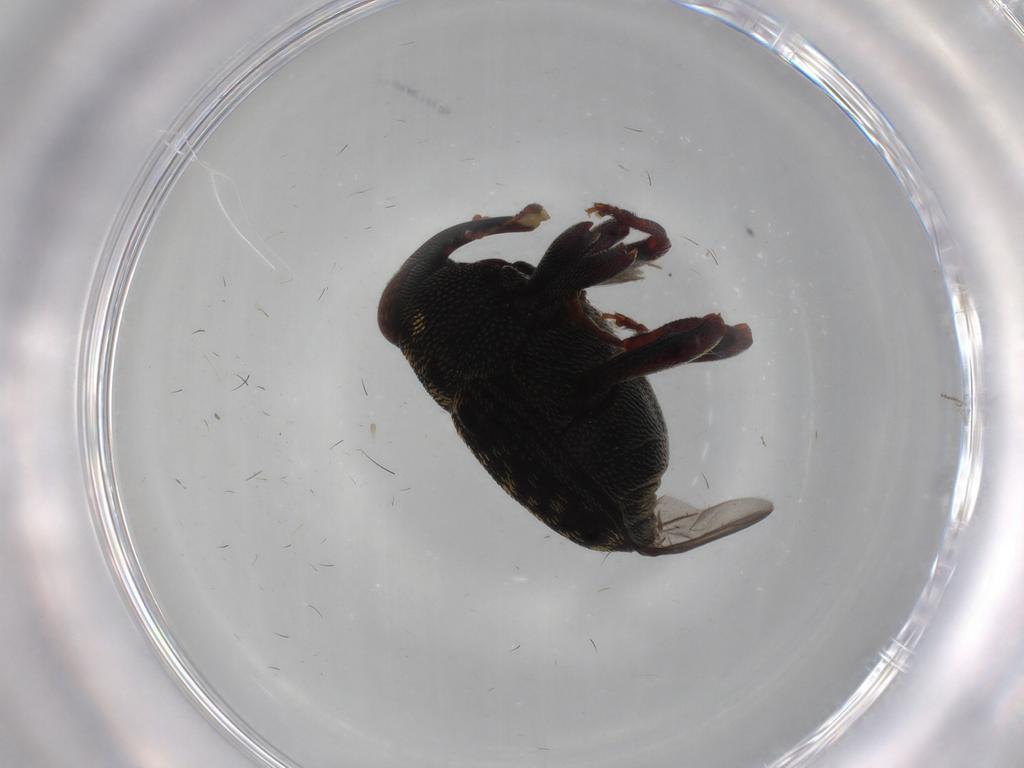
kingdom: Animalia
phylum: Arthropoda
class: Insecta
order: Coleoptera
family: Curculionidae
